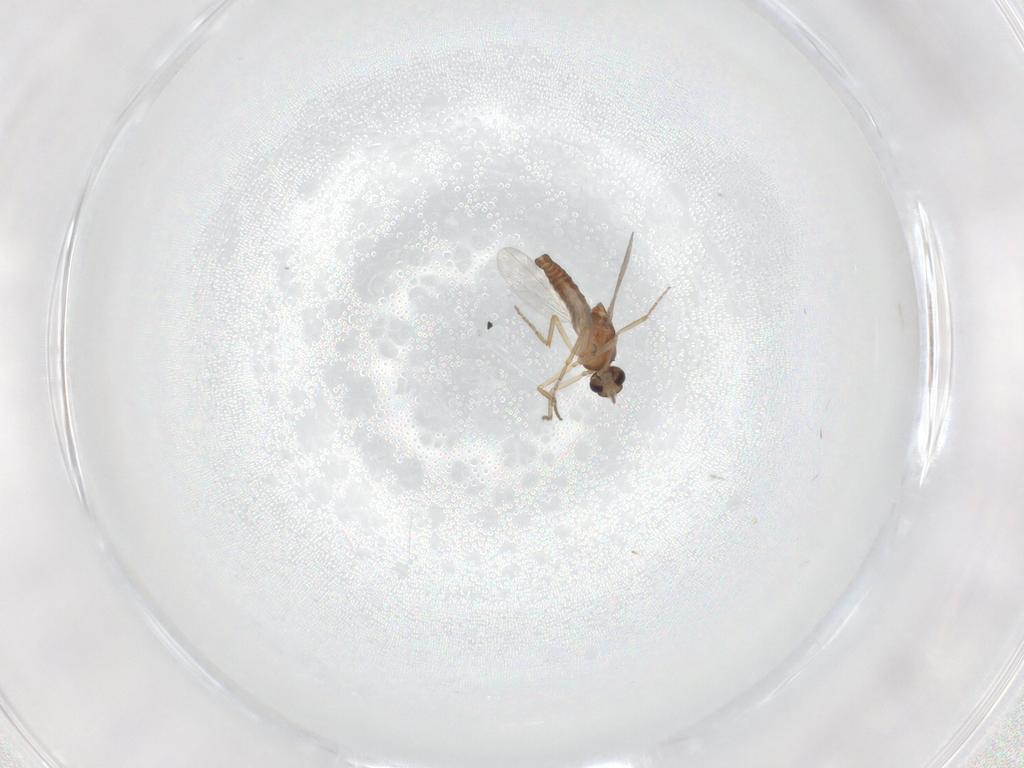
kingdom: Animalia
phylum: Arthropoda
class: Insecta
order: Diptera
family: Ceratopogonidae
